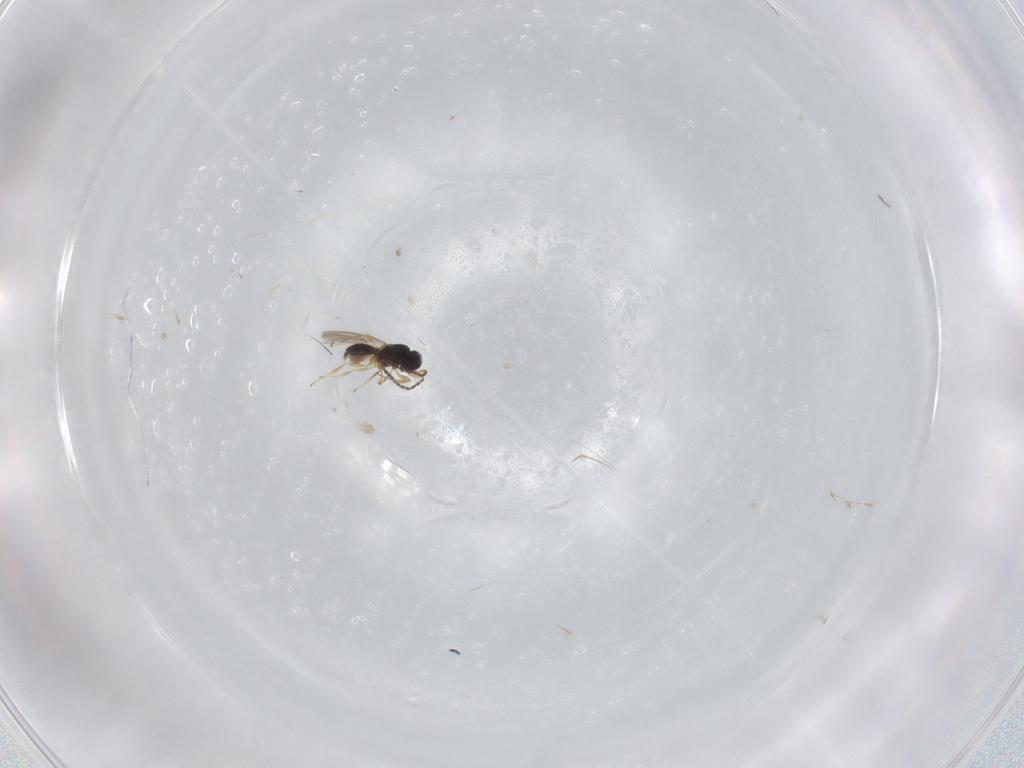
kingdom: Animalia
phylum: Arthropoda
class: Insecta
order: Hymenoptera
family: Scelionidae
